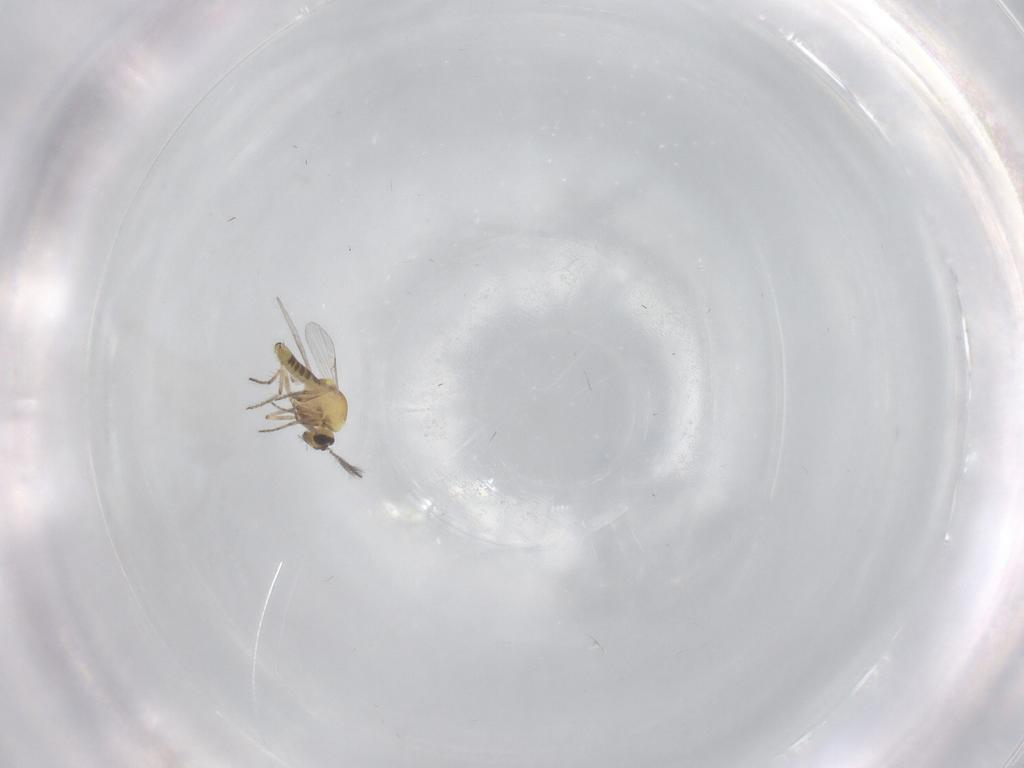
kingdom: Animalia
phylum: Arthropoda
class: Insecta
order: Diptera
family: Ceratopogonidae
